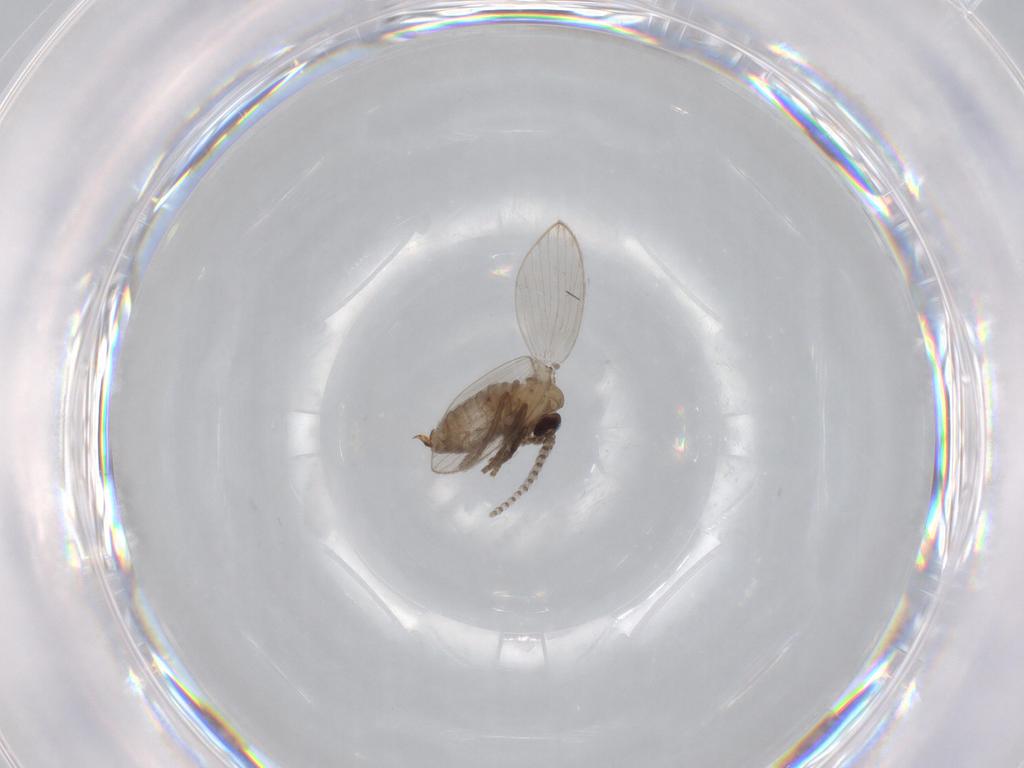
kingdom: Animalia
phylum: Arthropoda
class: Insecta
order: Diptera
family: Psychodidae
